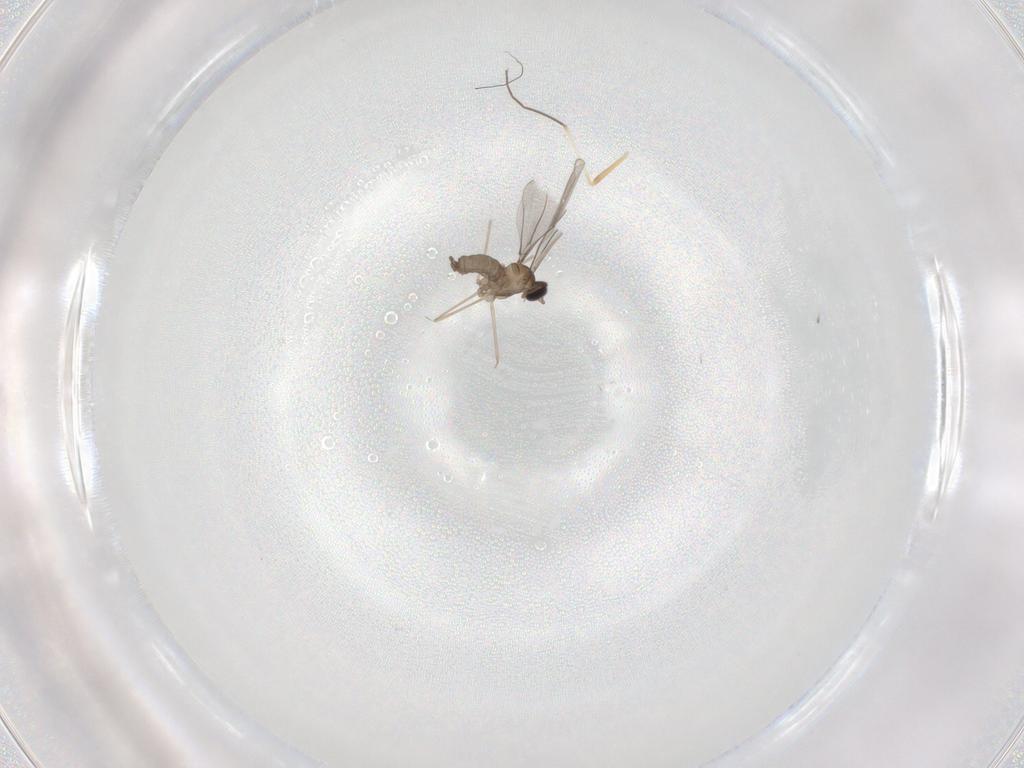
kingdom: Animalia
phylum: Arthropoda
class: Insecta
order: Diptera
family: Cecidomyiidae
